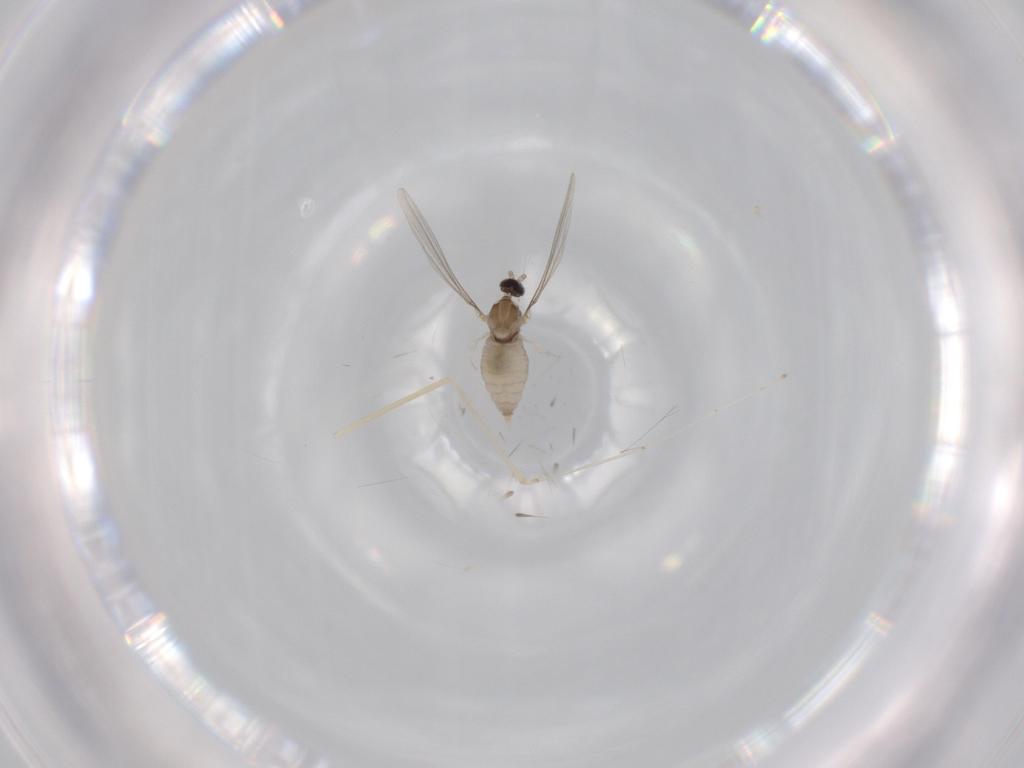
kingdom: Animalia
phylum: Arthropoda
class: Insecta
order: Diptera
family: Cecidomyiidae
